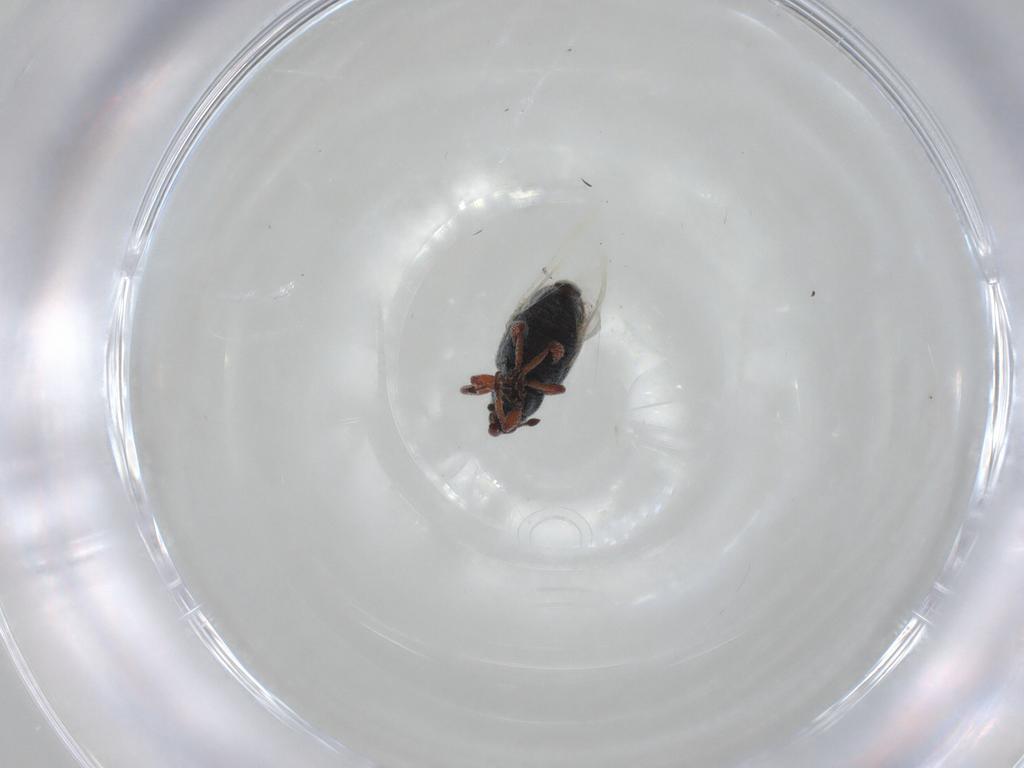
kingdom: Animalia
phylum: Arthropoda
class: Insecta
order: Coleoptera
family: Curculionidae
